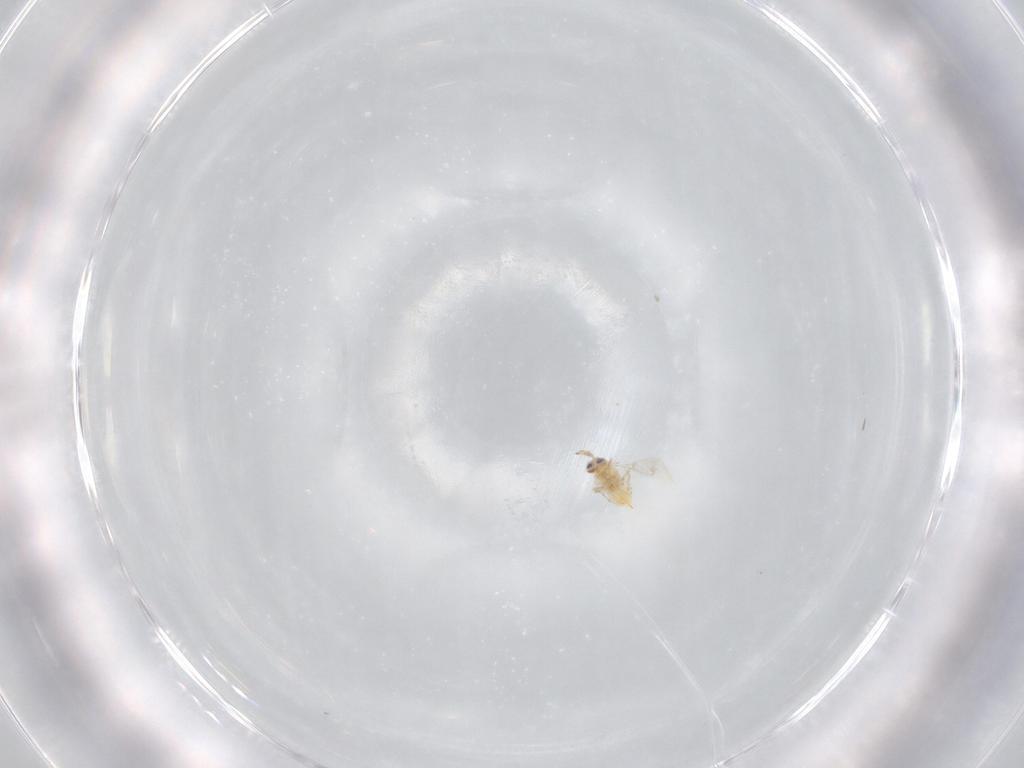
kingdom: Animalia
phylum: Arthropoda
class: Insecta
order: Hymenoptera
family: Aphelinidae
